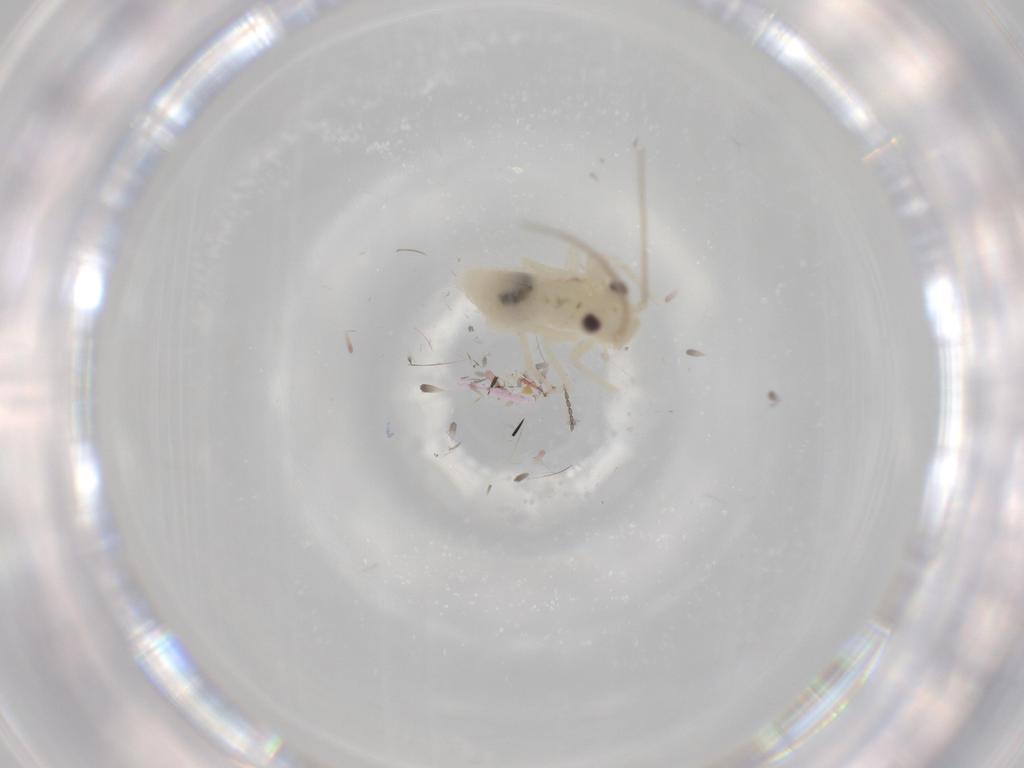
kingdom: Animalia
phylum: Arthropoda
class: Insecta
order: Psocodea
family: Caeciliusidae
